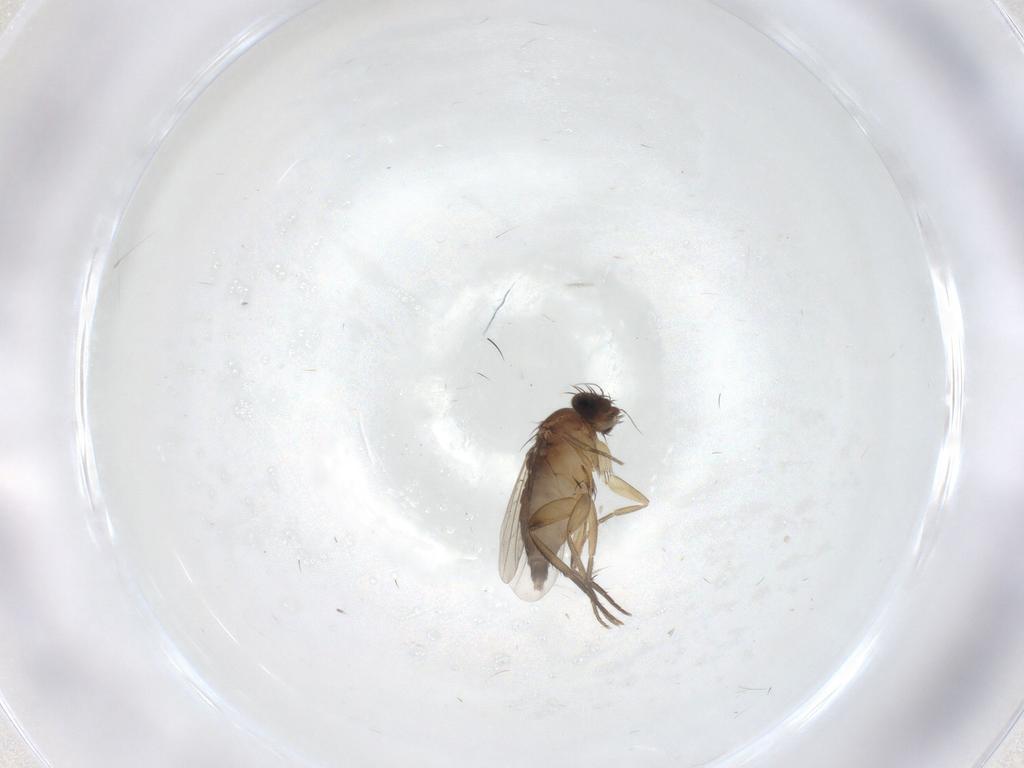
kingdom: Animalia
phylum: Arthropoda
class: Insecta
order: Diptera
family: Phoridae
